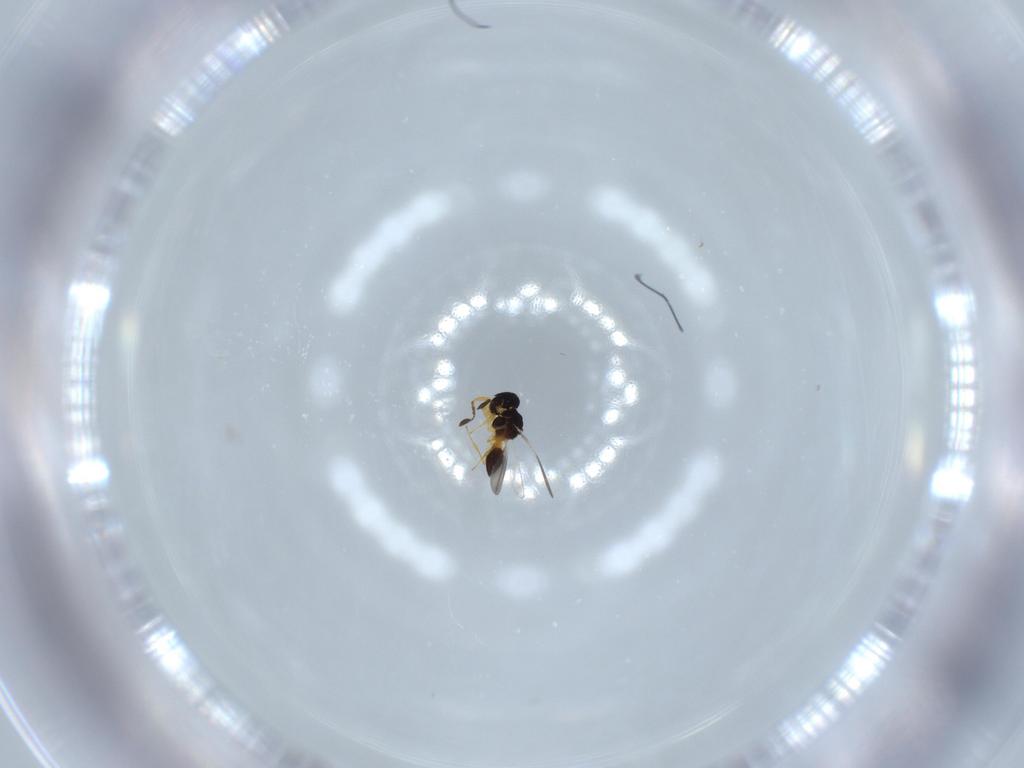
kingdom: Animalia
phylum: Arthropoda
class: Insecta
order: Hymenoptera
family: Platygastridae
